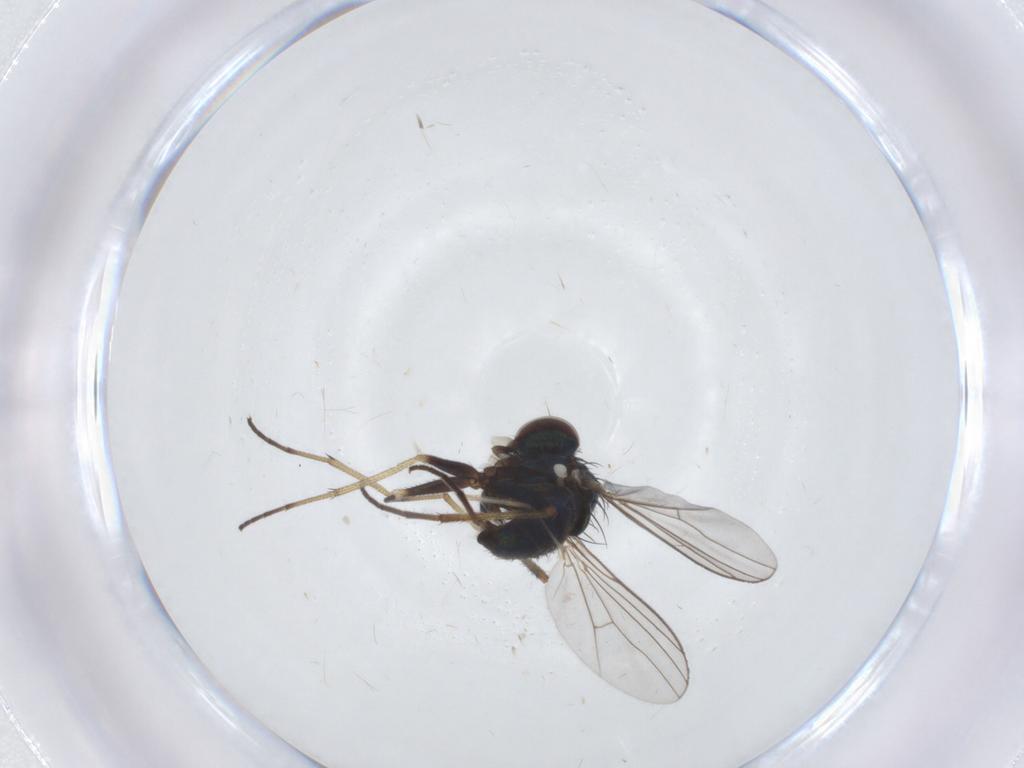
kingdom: Animalia
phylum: Arthropoda
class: Insecta
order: Diptera
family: Dolichopodidae
